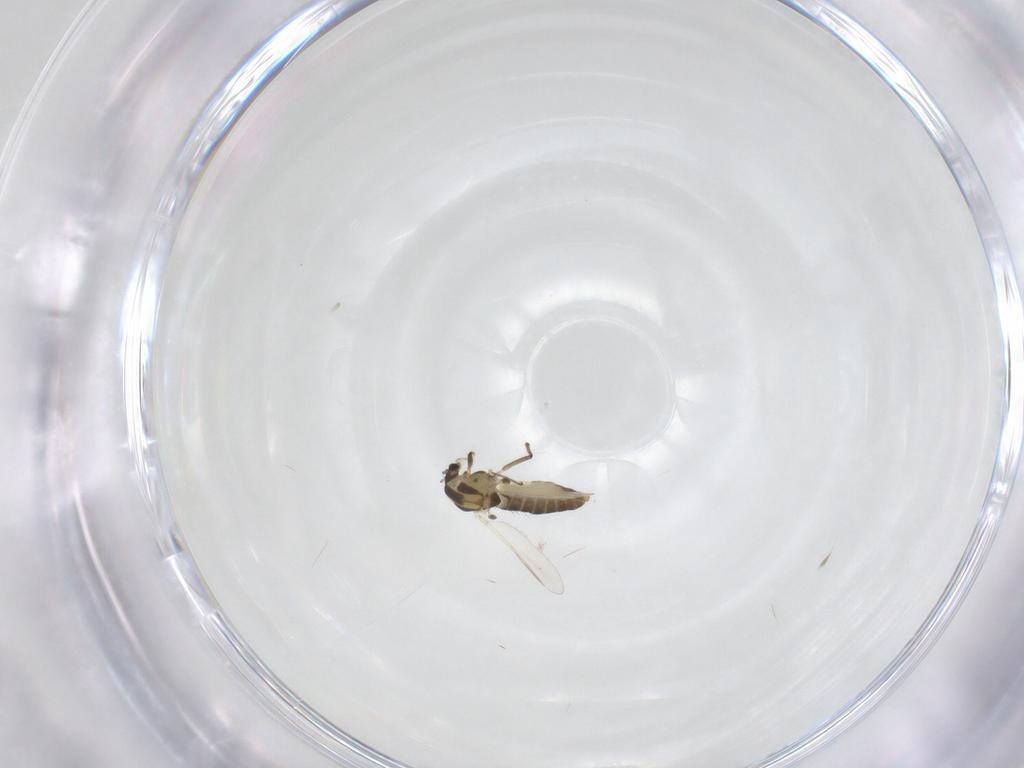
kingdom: Animalia
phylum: Arthropoda
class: Insecta
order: Diptera
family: Chironomidae
